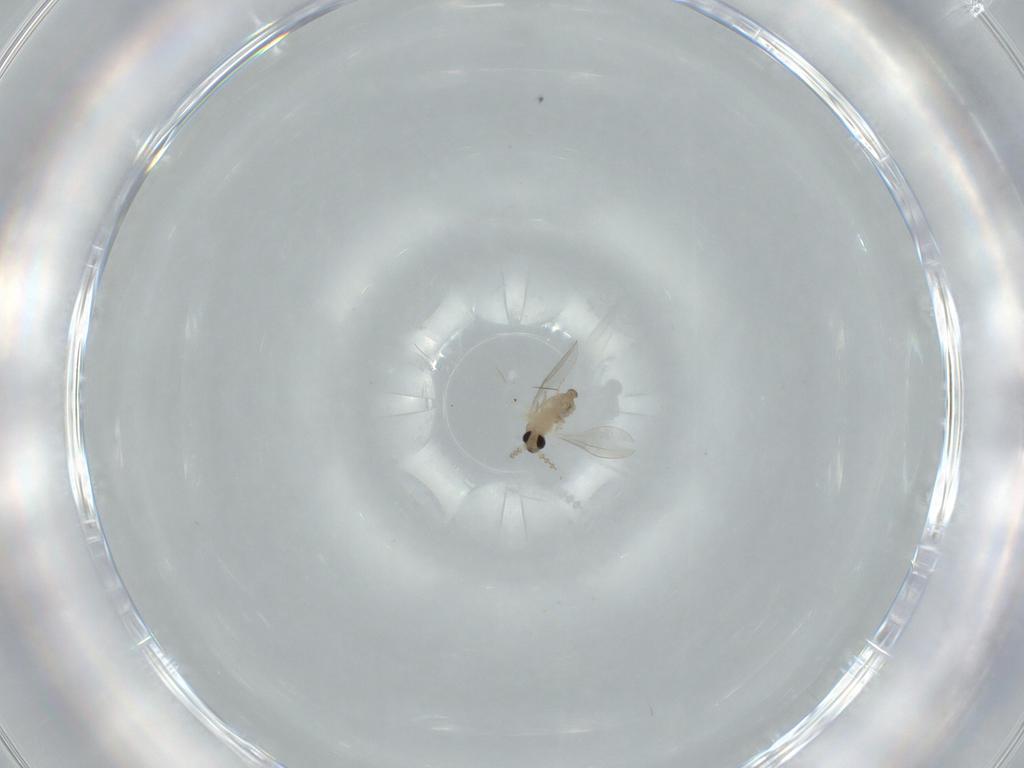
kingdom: Animalia
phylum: Arthropoda
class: Insecta
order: Diptera
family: Cecidomyiidae
